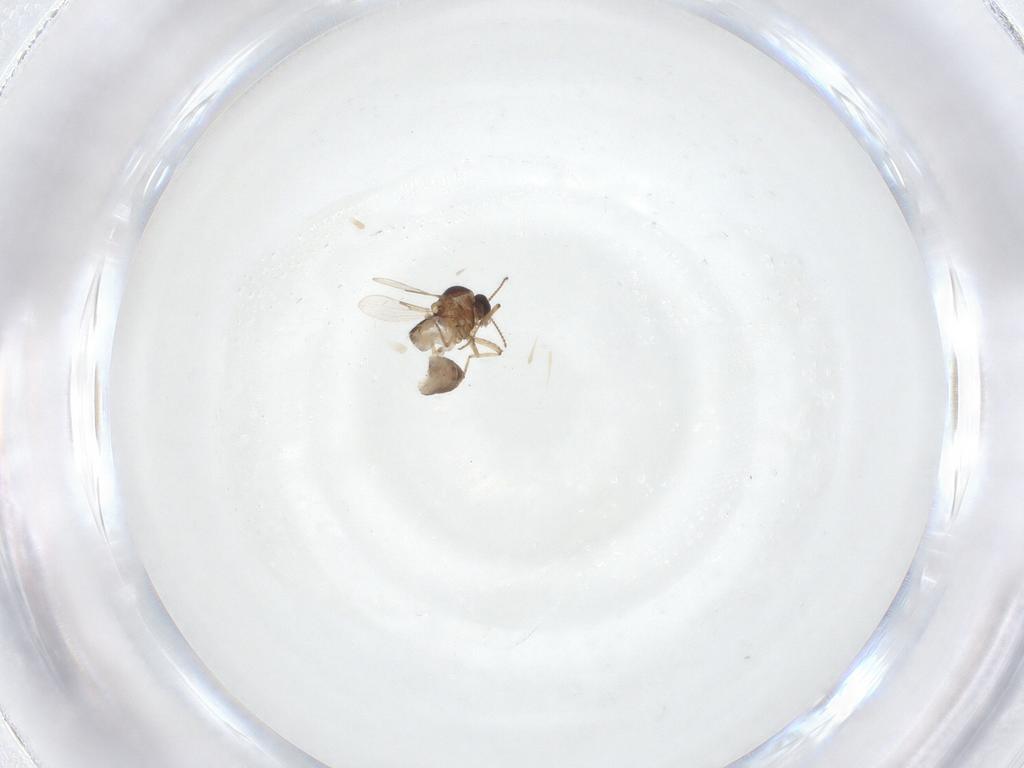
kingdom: Animalia
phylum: Arthropoda
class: Insecta
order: Diptera
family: Ceratopogonidae
